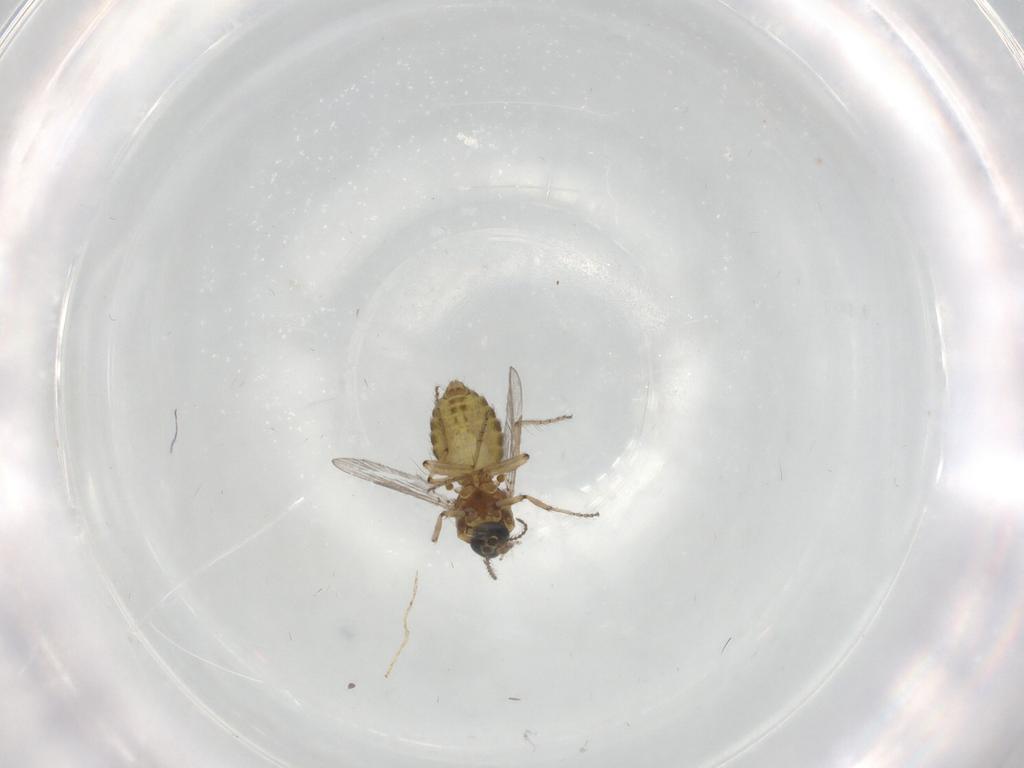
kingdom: Animalia
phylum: Arthropoda
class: Insecta
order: Diptera
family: Ceratopogonidae
